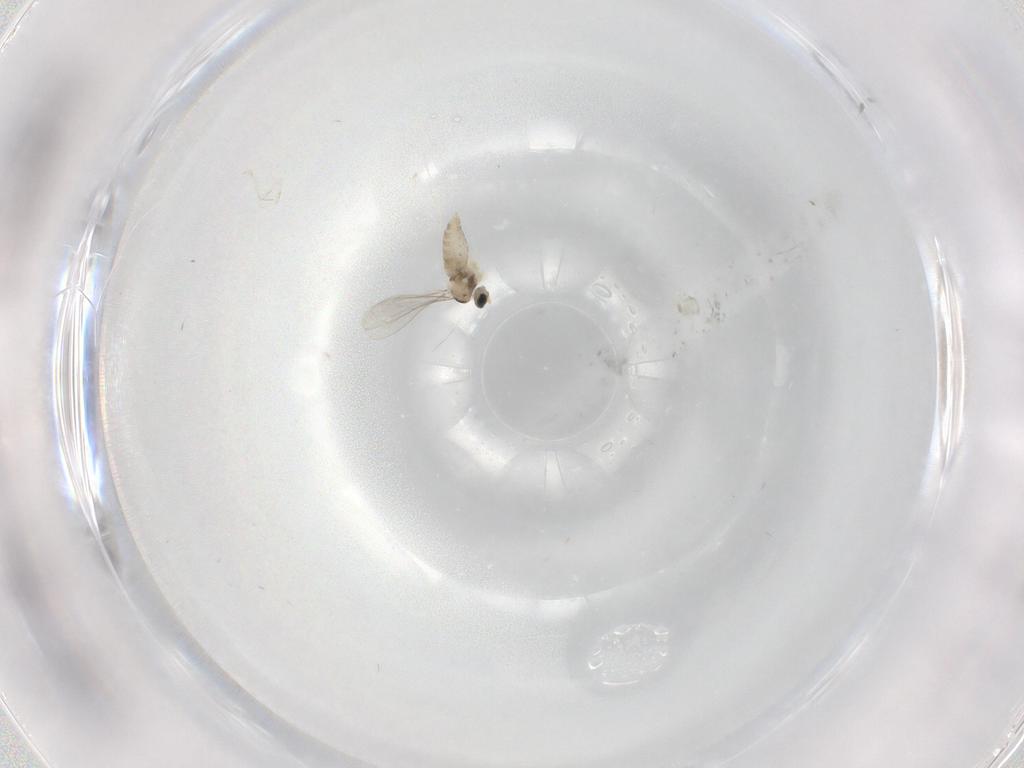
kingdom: Animalia
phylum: Arthropoda
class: Insecta
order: Diptera
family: Cecidomyiidae
